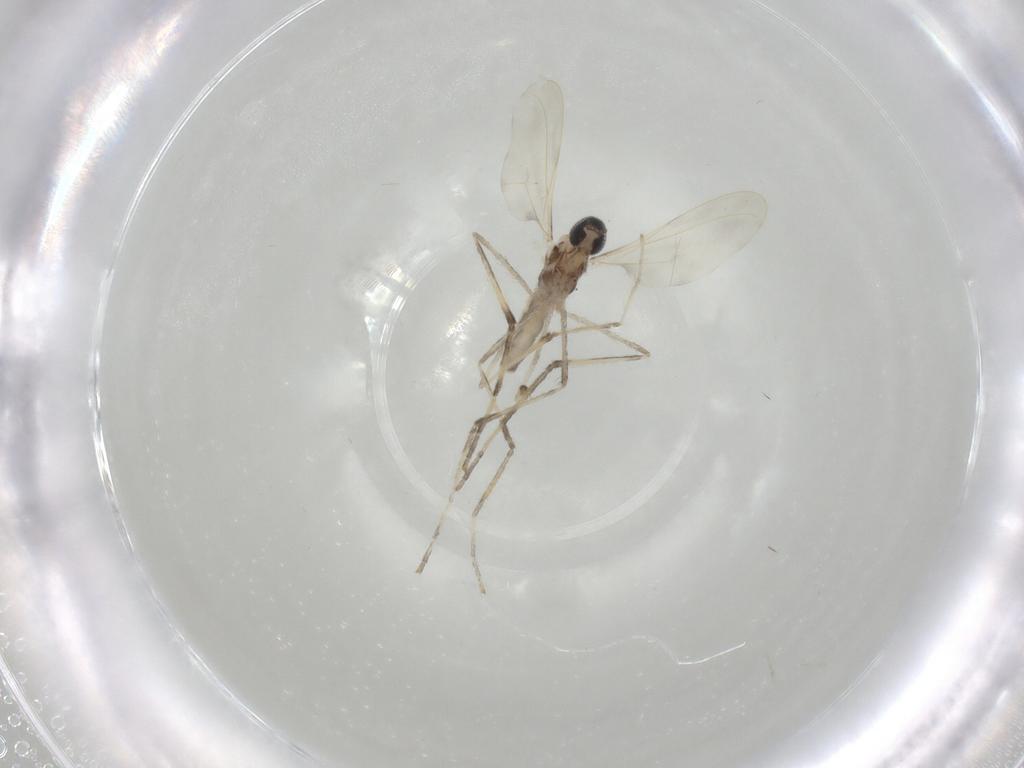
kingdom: Animalia
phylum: Arthropoda
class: Insecta
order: Diptera
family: Cecidomyiidae
